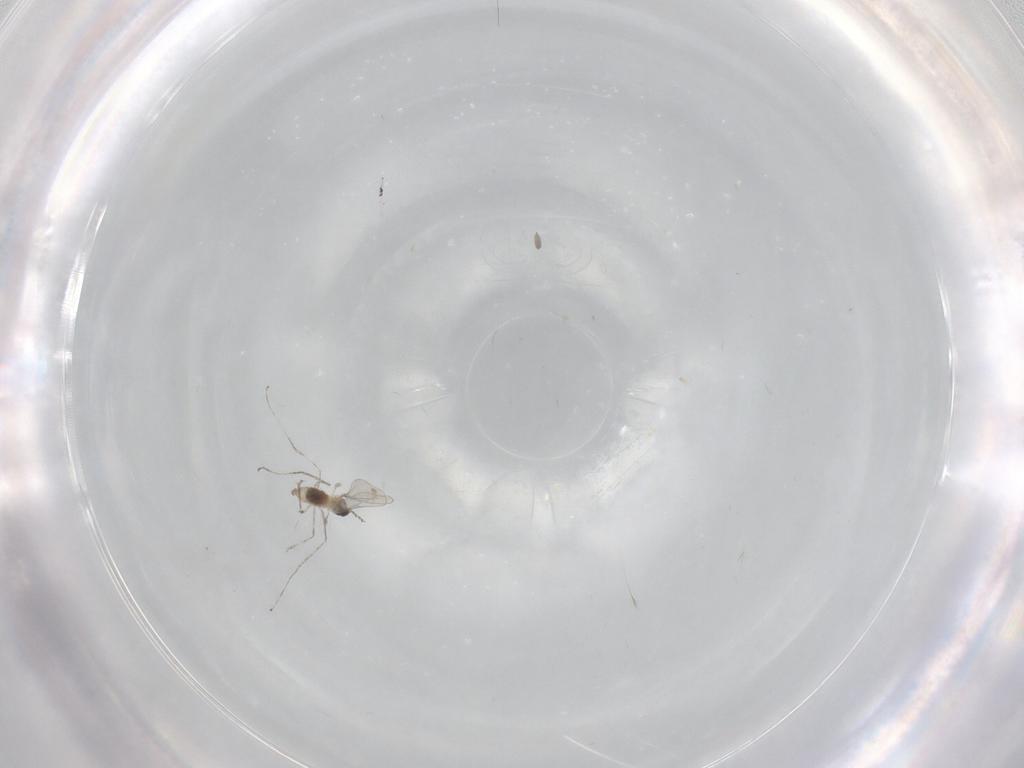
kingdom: Animalia
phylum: Arthropoda
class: Insecta
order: Diptera
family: Cecidomyiidae
